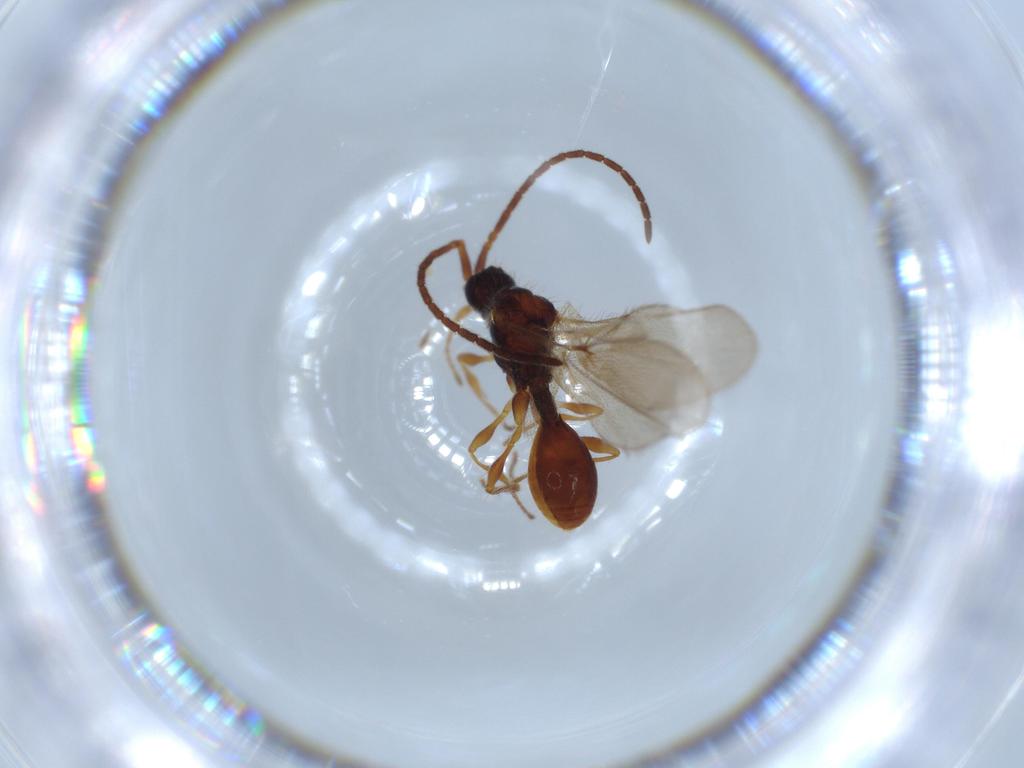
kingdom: Animalia
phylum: Arthropoda
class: Insecta
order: Hymenoptera
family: Diapriidae
